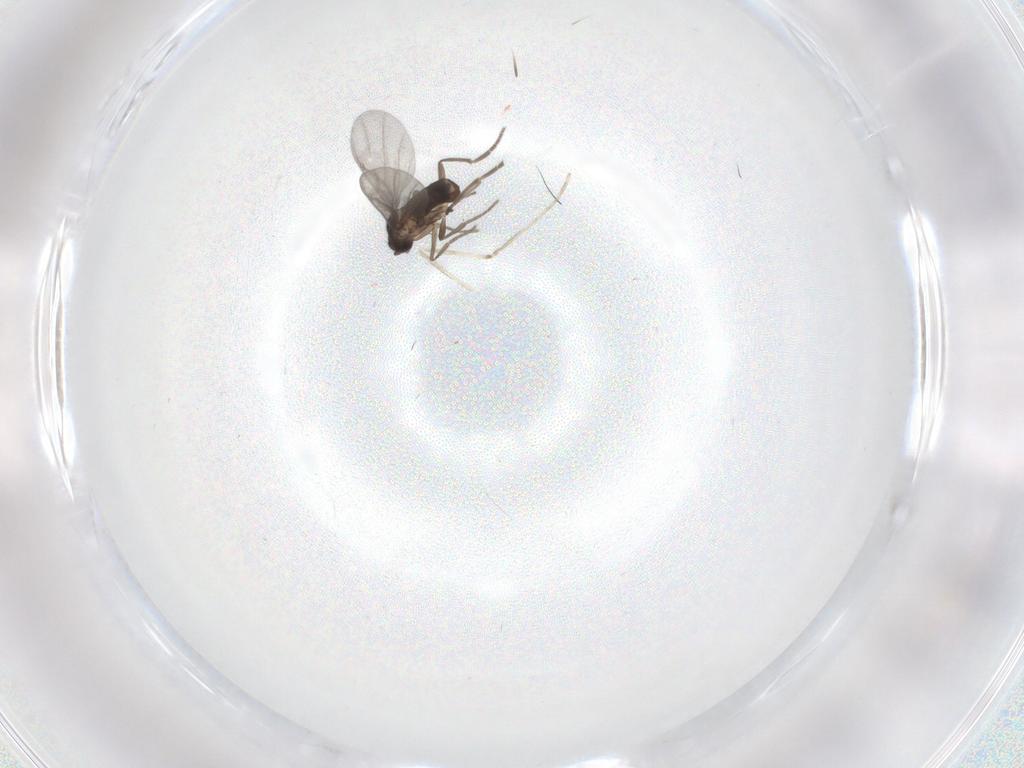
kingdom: Animalia
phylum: Arthropoda
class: Insecta
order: Diptera
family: Phoridae
